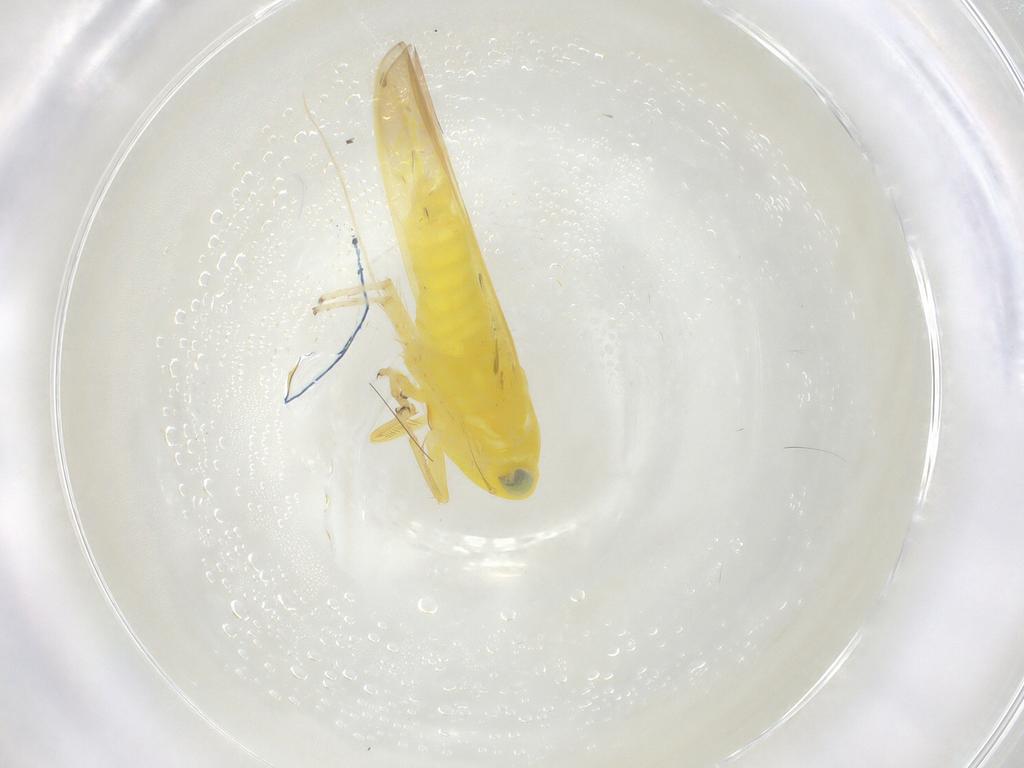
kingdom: Animalia
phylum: Arthropoda
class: Insecta
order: Hemiptera
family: Cicadellidae
